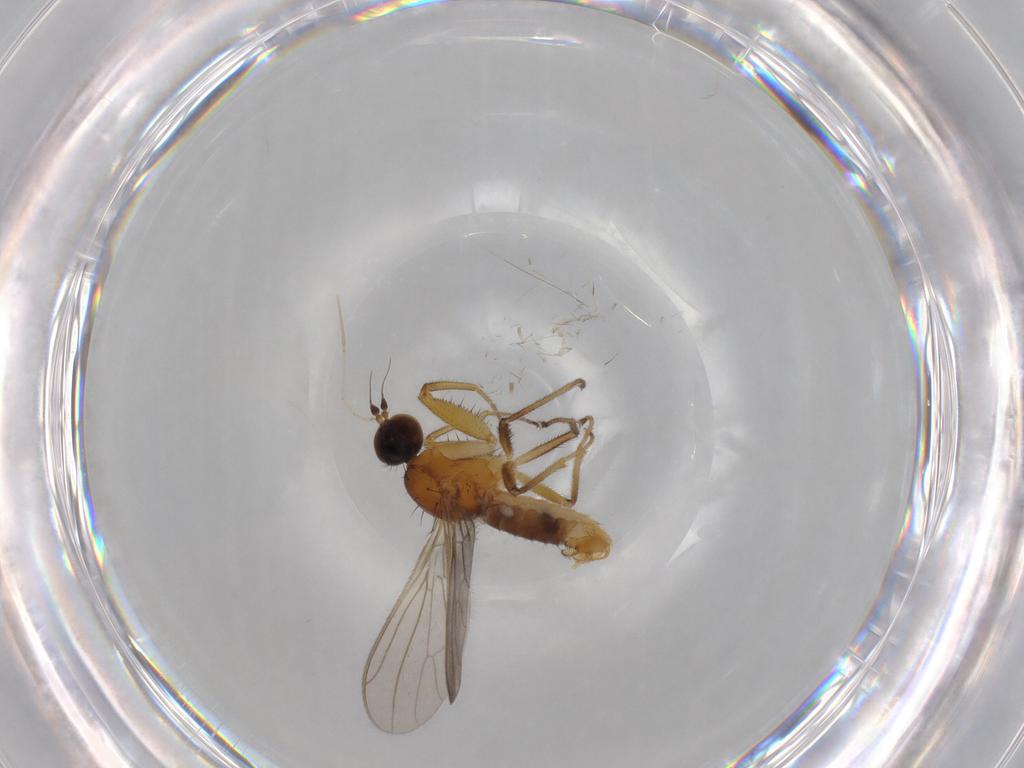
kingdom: Animalia
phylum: Arthropoda
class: Insecta
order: Diptera
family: Empididae
